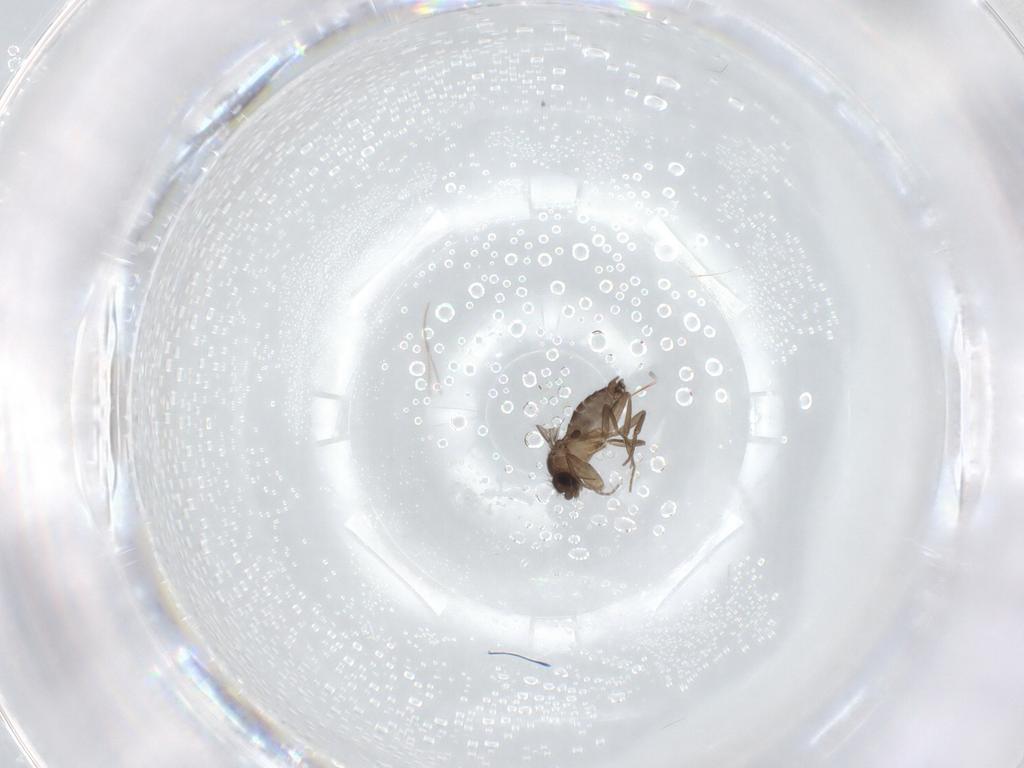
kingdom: Animalia
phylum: Arthropoda
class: Insecta
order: Diptera
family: Phoridae
